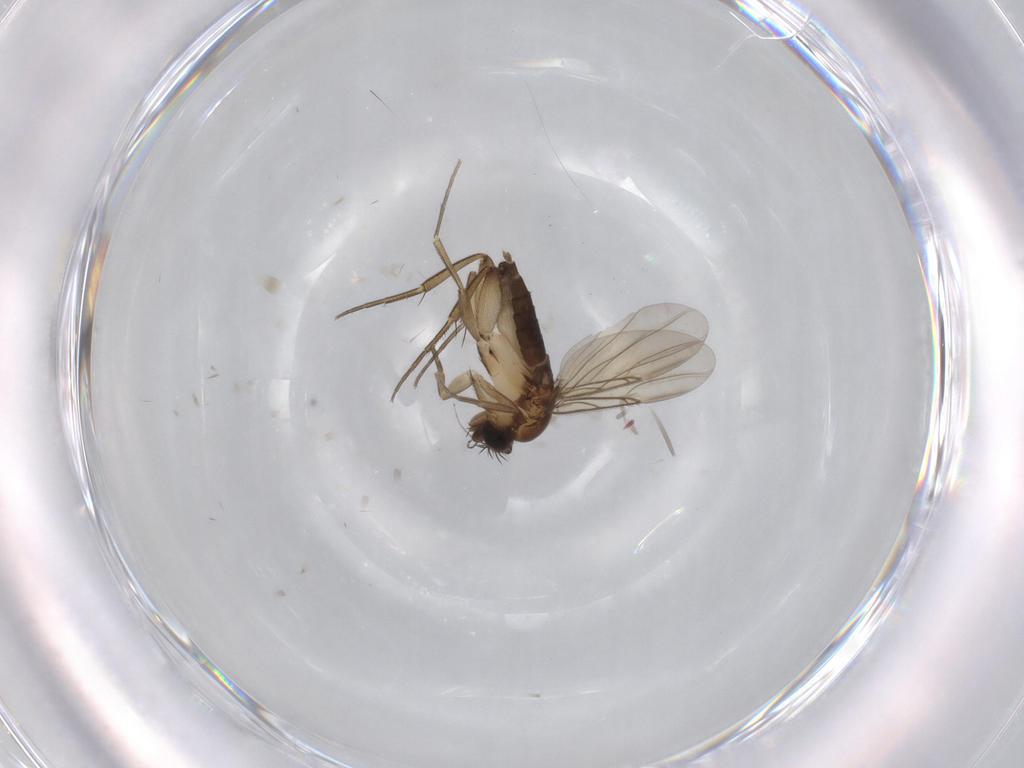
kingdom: Animalia
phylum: Arthropoda
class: Insecta
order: Diptera
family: Phoridae
